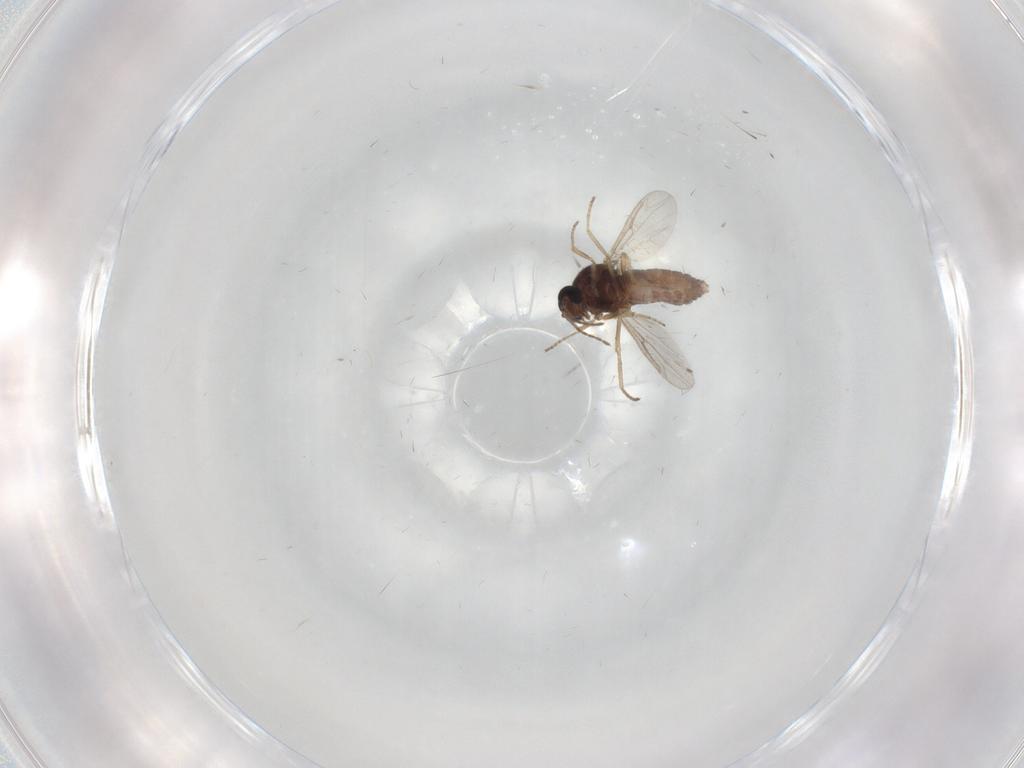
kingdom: Animalia
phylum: Arthropoda
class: Insecta
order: Diptera
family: Ceratopogonidae
